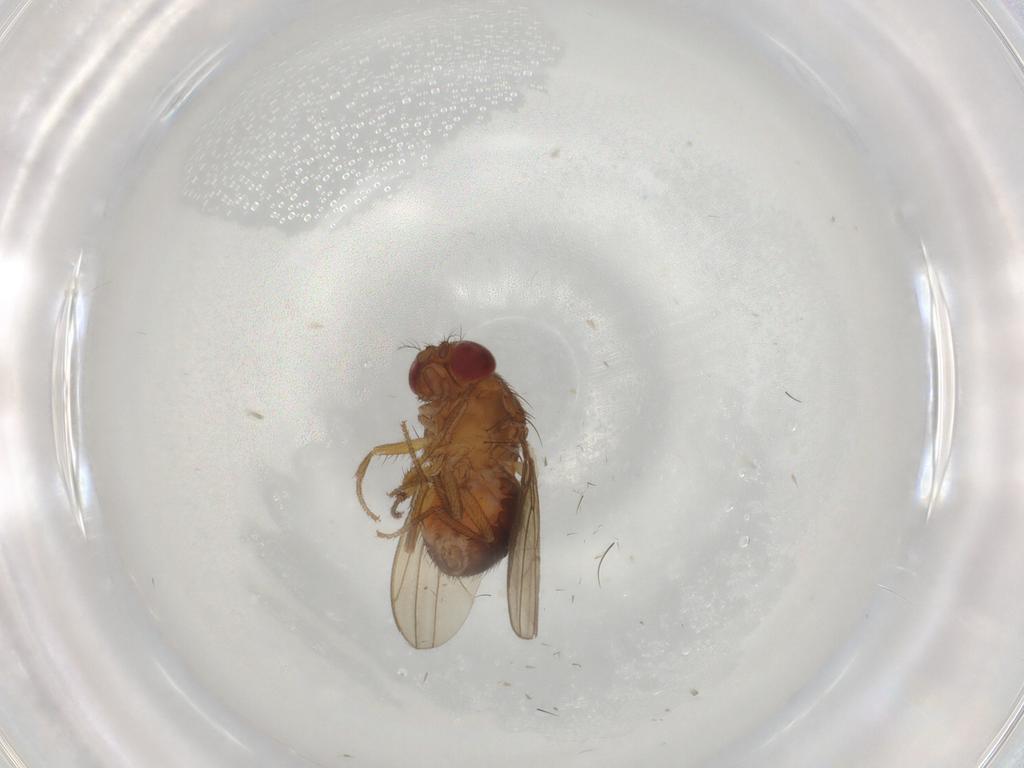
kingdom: Animalia
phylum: Arthropoda
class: Insecta
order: Diptera
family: Drosophilidae
